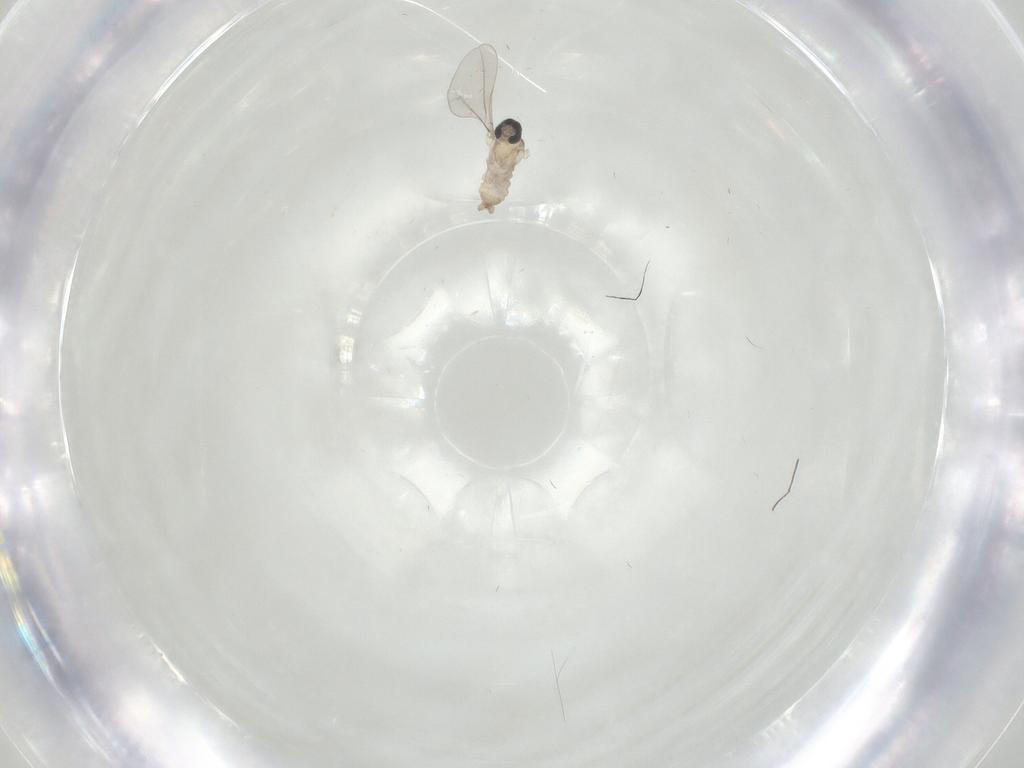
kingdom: Animalia
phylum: Arthropoda
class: Insecta
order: Diptera
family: Cecidomyiidae
